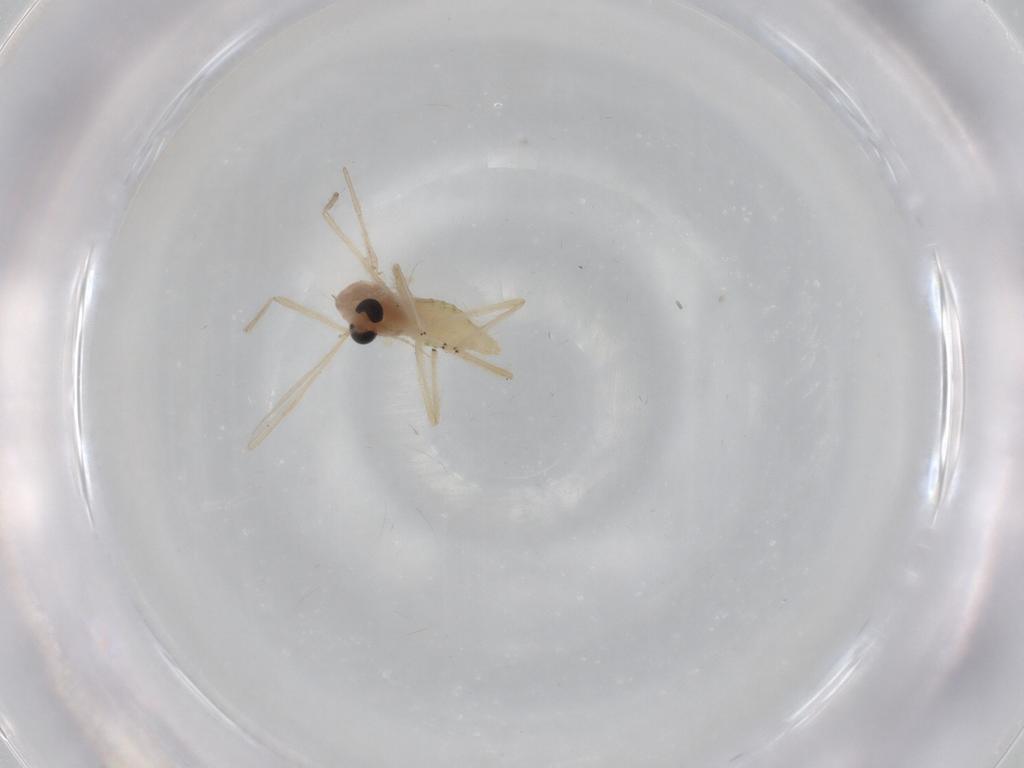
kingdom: Animalia
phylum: Arthropoda
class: Insecta
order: Diptera
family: Chironomidae
